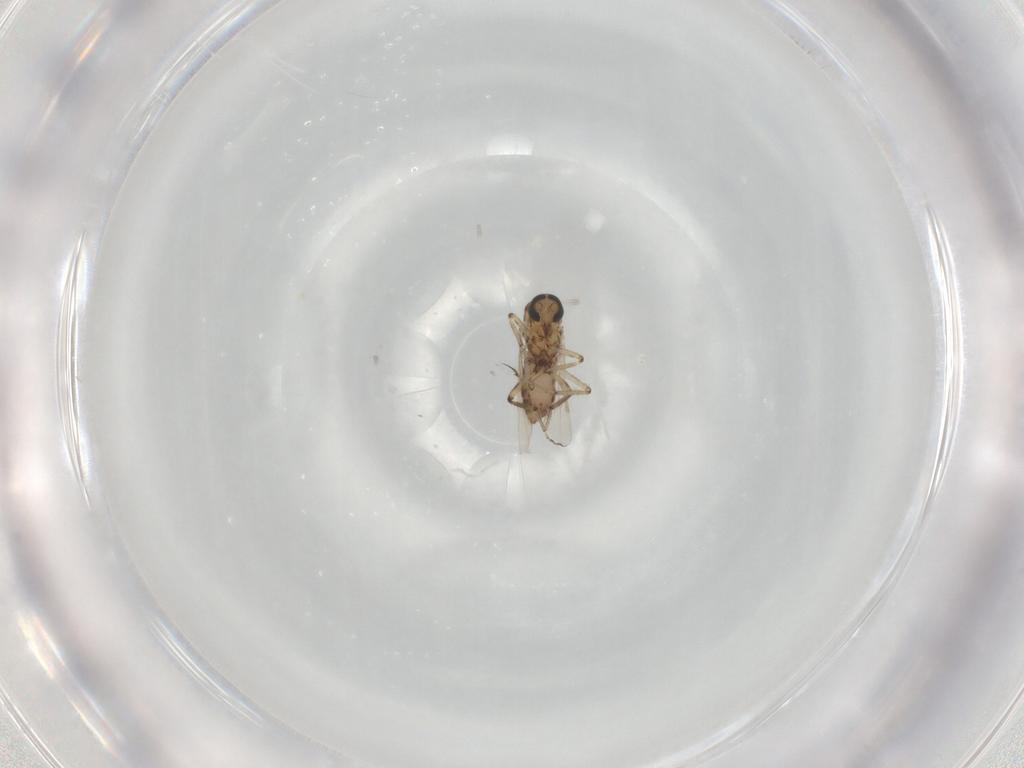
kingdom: Animalia
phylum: Arthropoda
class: Insecta
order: Diptera
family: Ceratopogonidae
